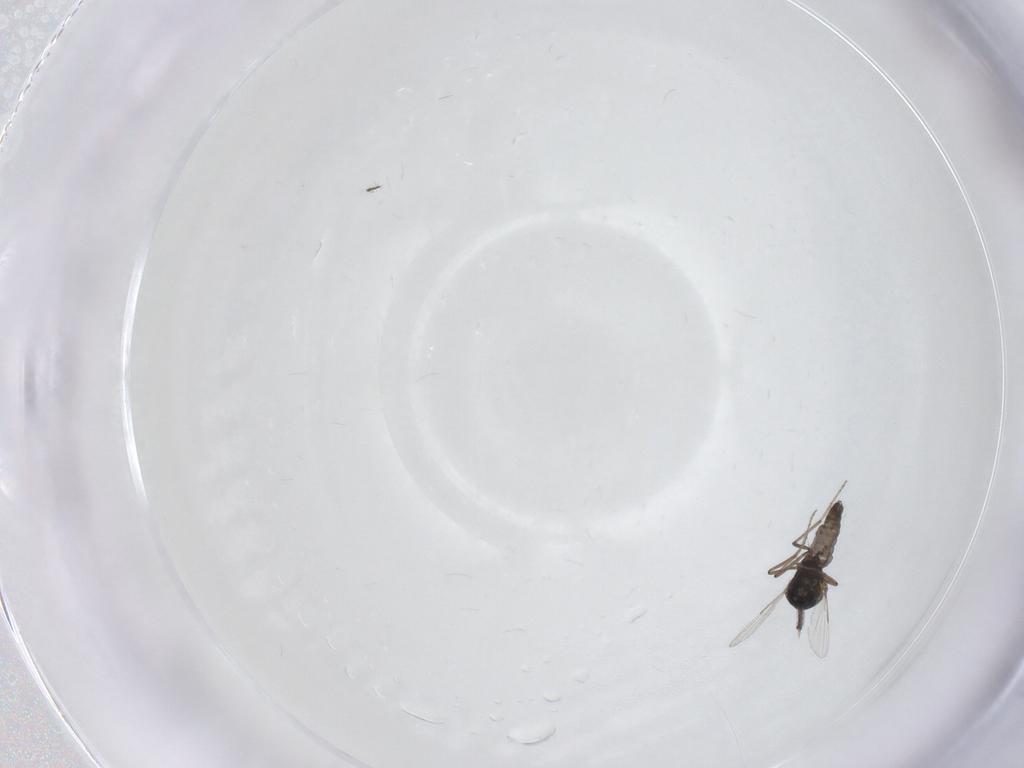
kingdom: Animalia
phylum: Arthropoda
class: Insecta
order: Diptera
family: Ceratopogonidae
